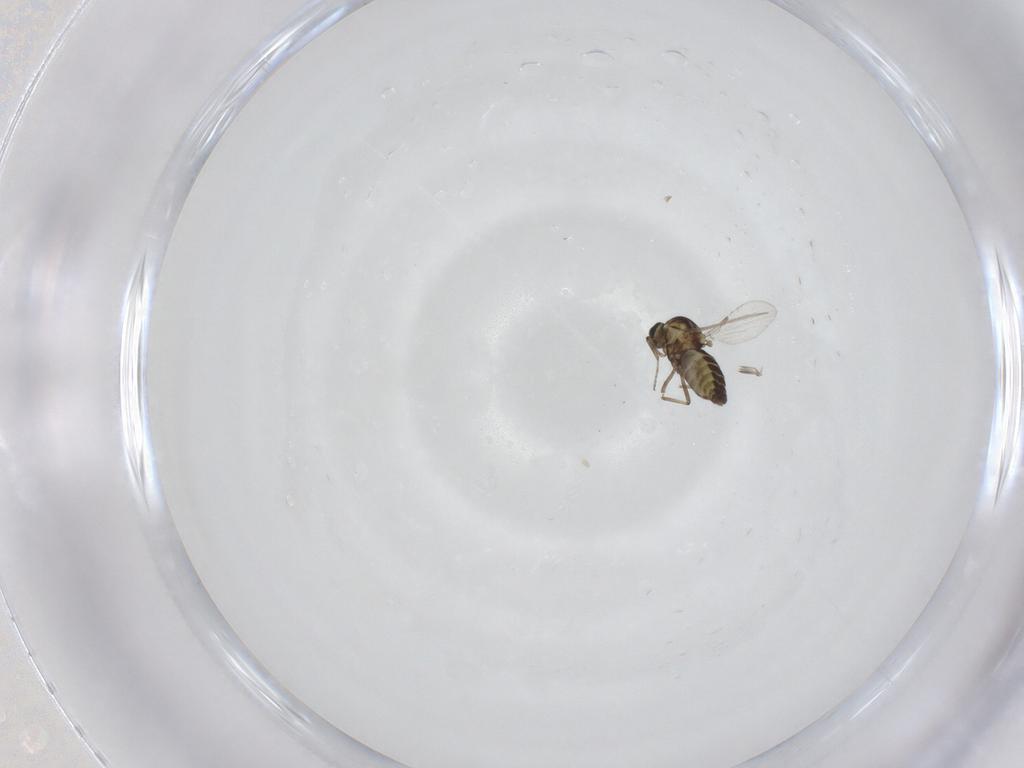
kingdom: Animalia
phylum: Arthropoda
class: Insecta
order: Diptera
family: Ceratopogonidae
